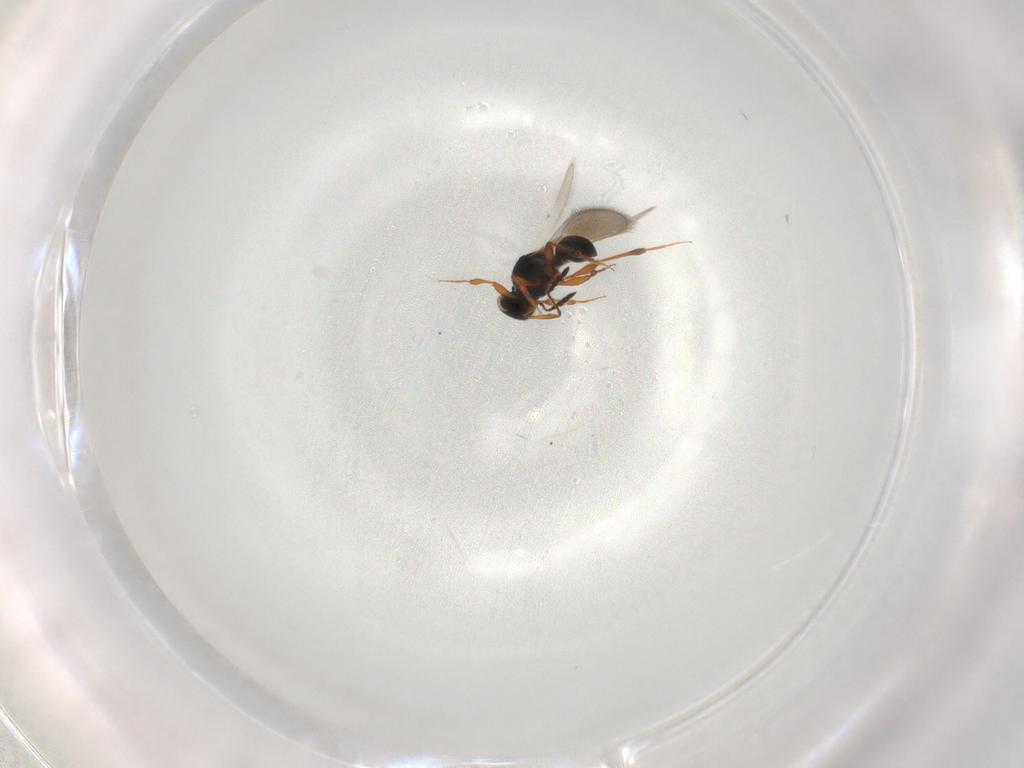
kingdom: Animalia
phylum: Arthropoda
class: Insecta
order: Hymenoptera
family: Platygastridae
